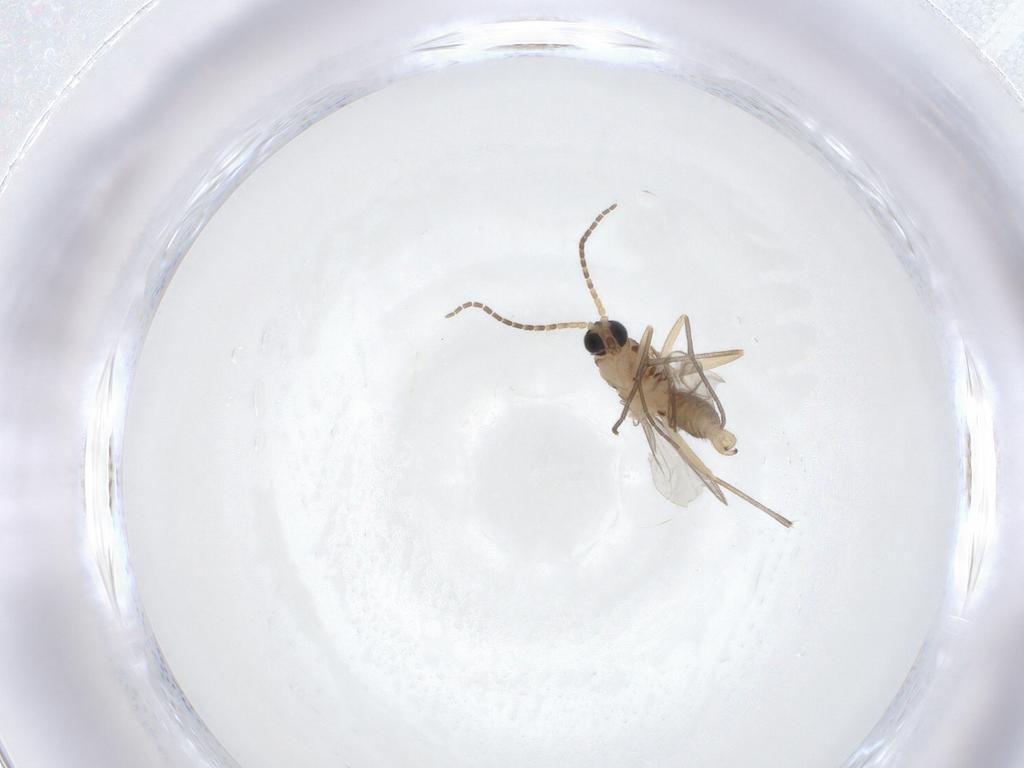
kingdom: Animalia
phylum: Arthropoda
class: Insecta
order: Diptera
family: Sciaridae
